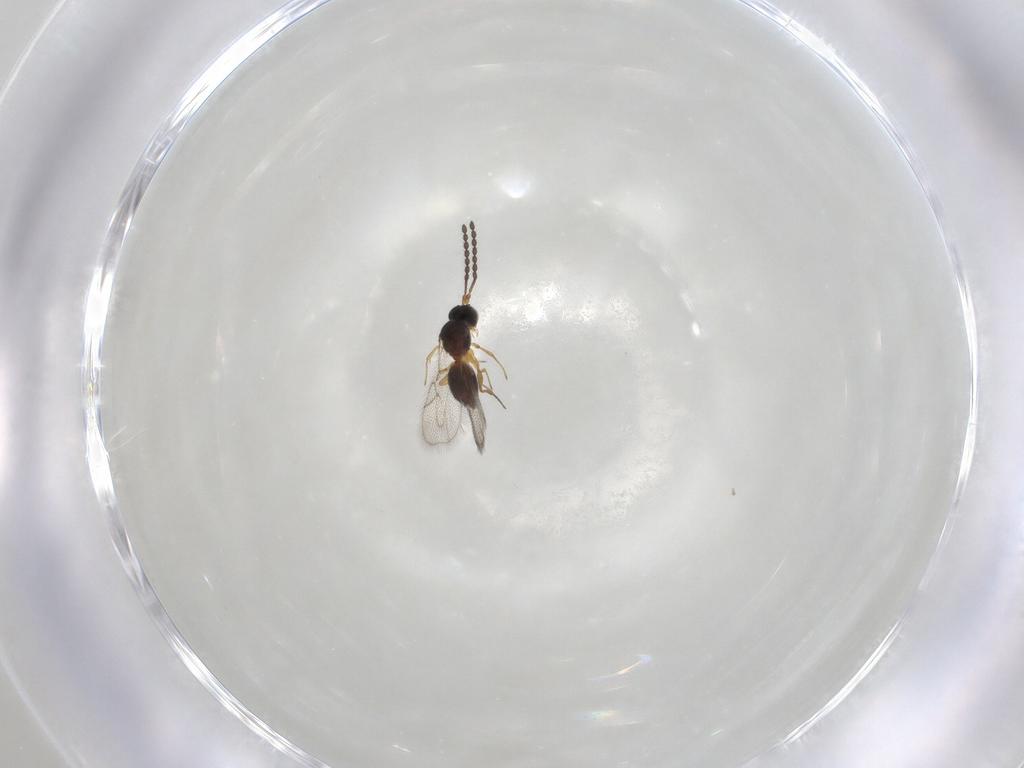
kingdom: Animalia
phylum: Arthropoda
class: Insecta
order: Hymenoptera
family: Figitidae
